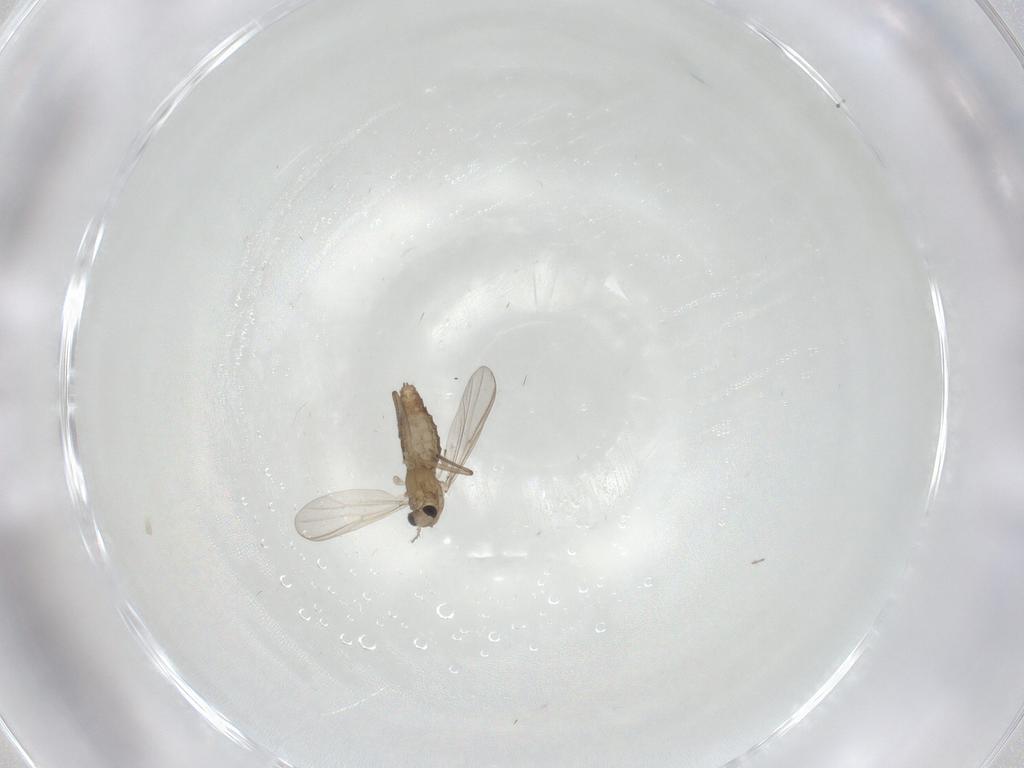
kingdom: Animalia
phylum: Arthropoda
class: Insecta
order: Diptera
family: Chironomidae
